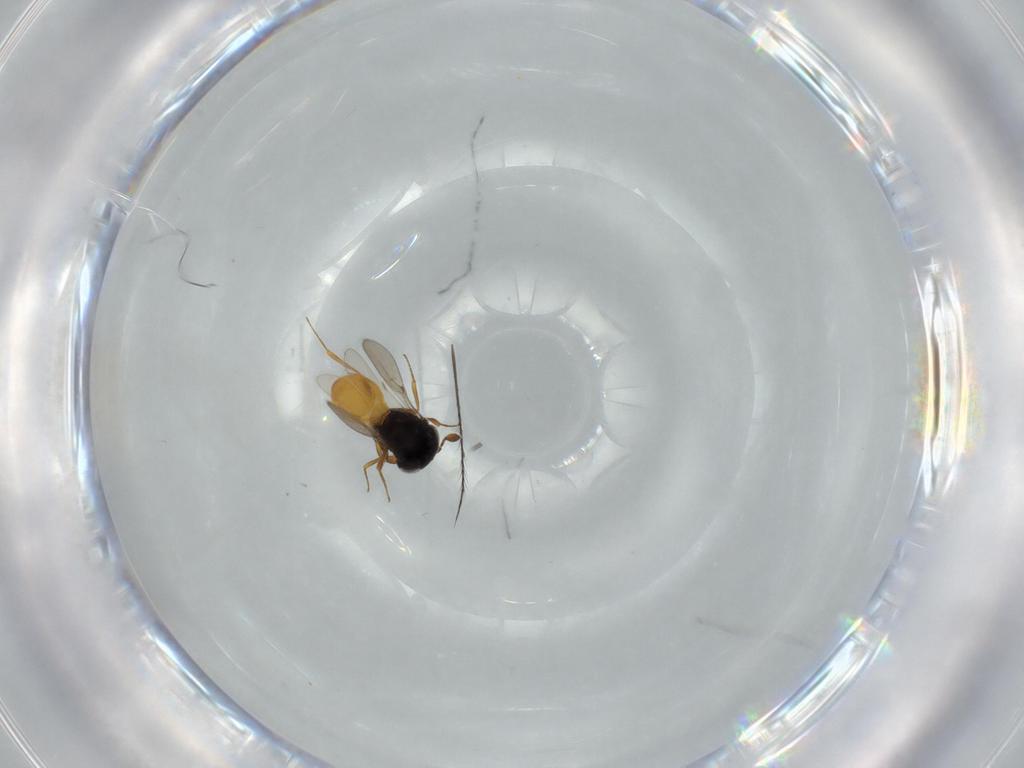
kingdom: Animalia
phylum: Arthropoda
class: Insecta
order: Hymenoptera
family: Scelionidae
